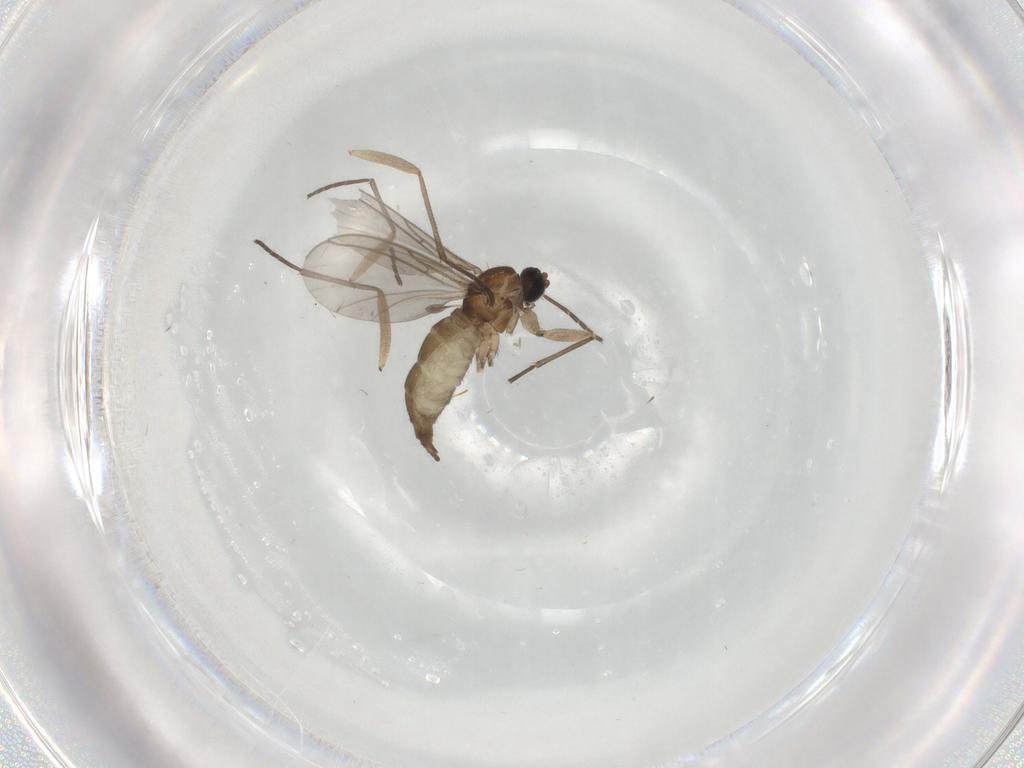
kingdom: Animalia
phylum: Arthropoda
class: Insecta
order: Diptera
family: Sciaridae
